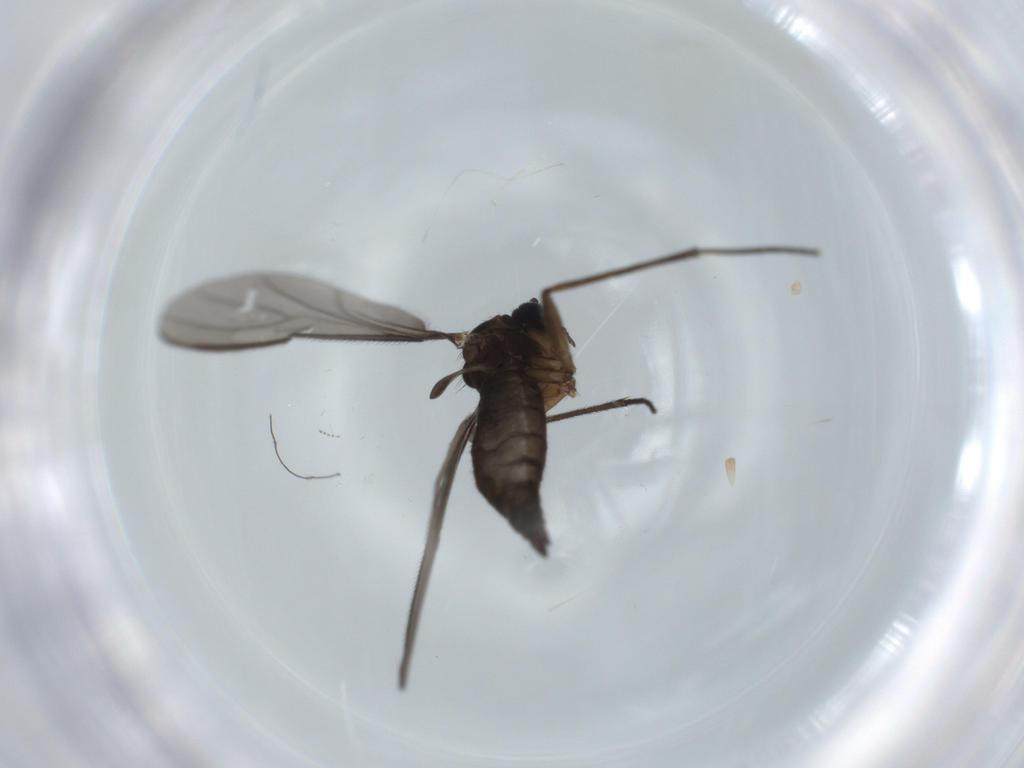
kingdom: Animalia
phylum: Arthropoda
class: Insecta
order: Diptera
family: Sciaridae
